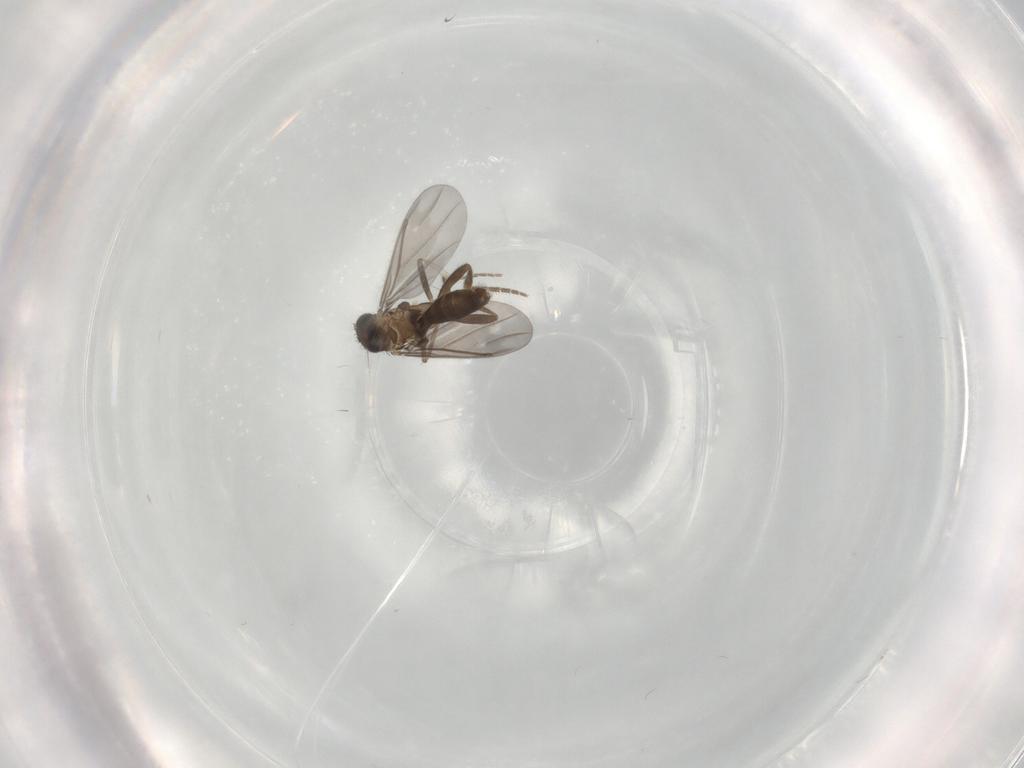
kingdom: Animalia
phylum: Arthropoda
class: Insecta
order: Diptera
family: Phoridae
